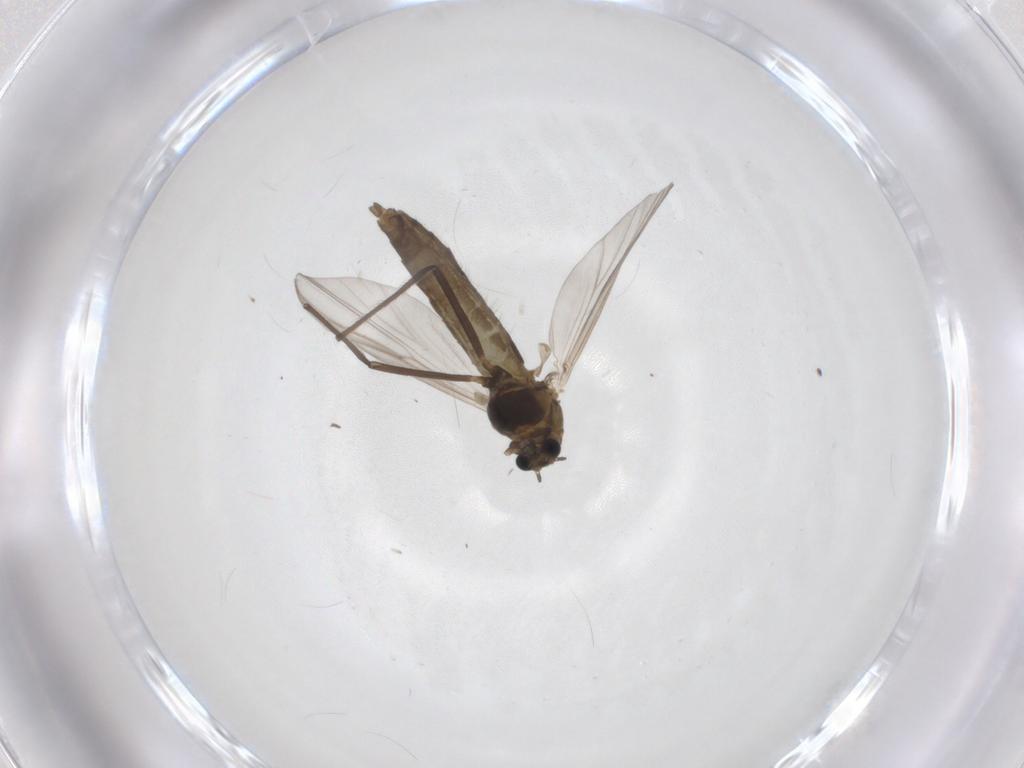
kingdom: Animalia
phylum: Arthropoda
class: Insecta
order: Diptera
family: Chironomidae
